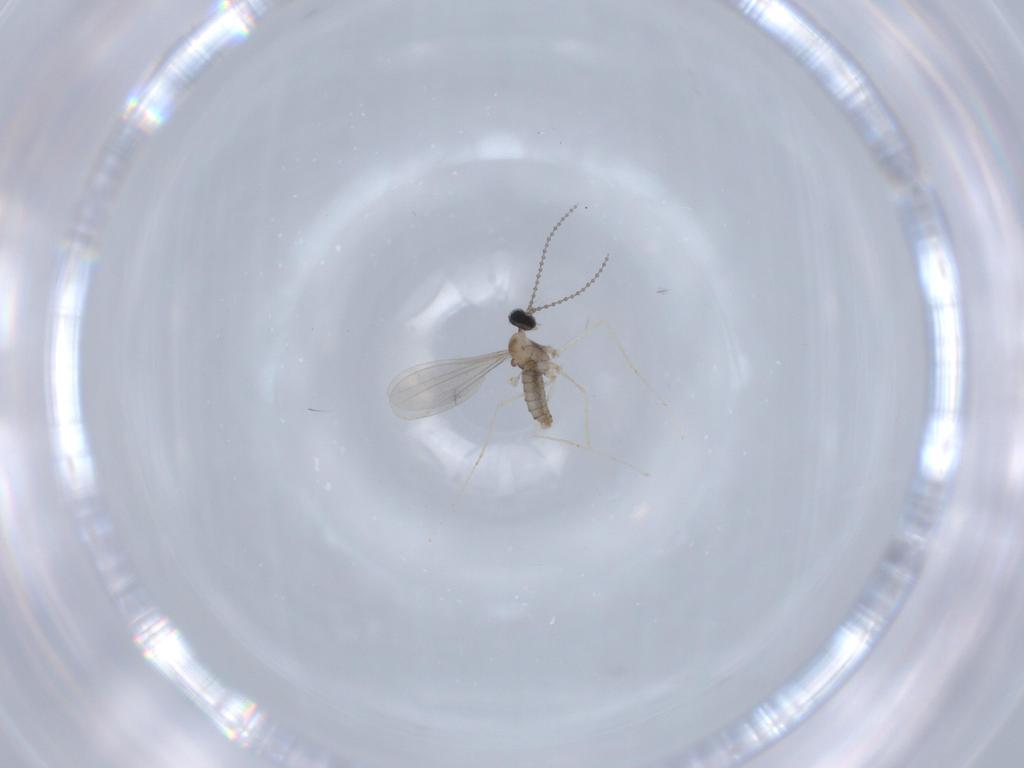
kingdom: Animalia
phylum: Arthropoda
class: Insecta
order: Diptera
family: Cecidomyiidae
